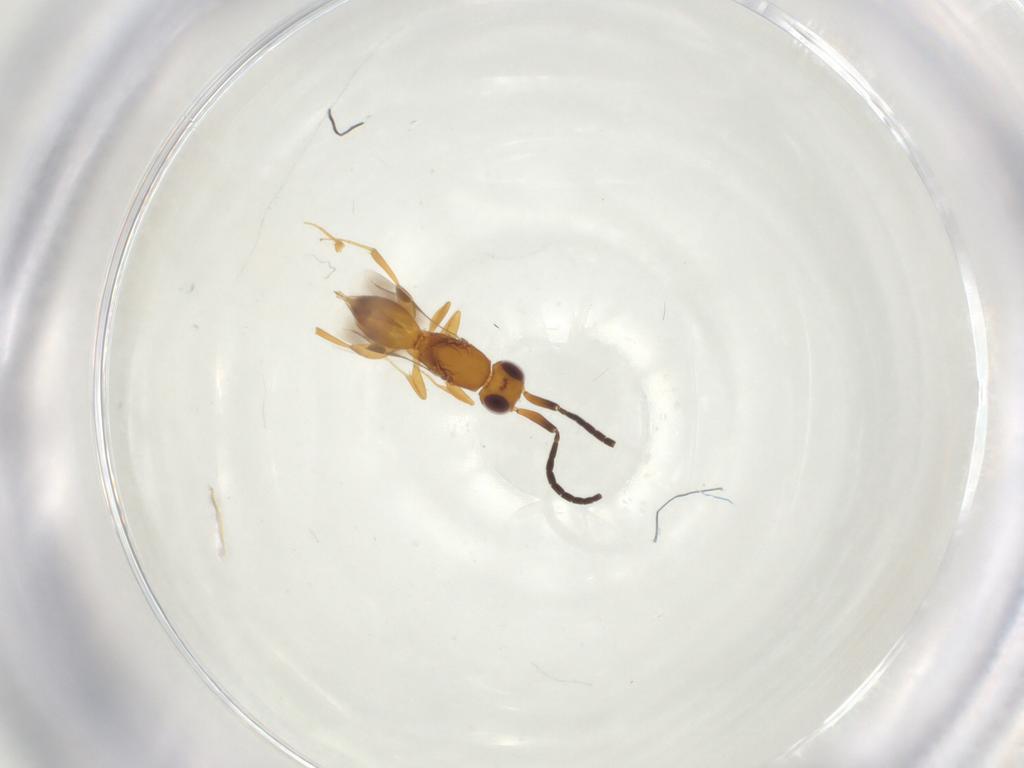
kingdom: Animalia
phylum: Arthropoda
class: Insecta
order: Hymenoptera
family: Megaspilidae
